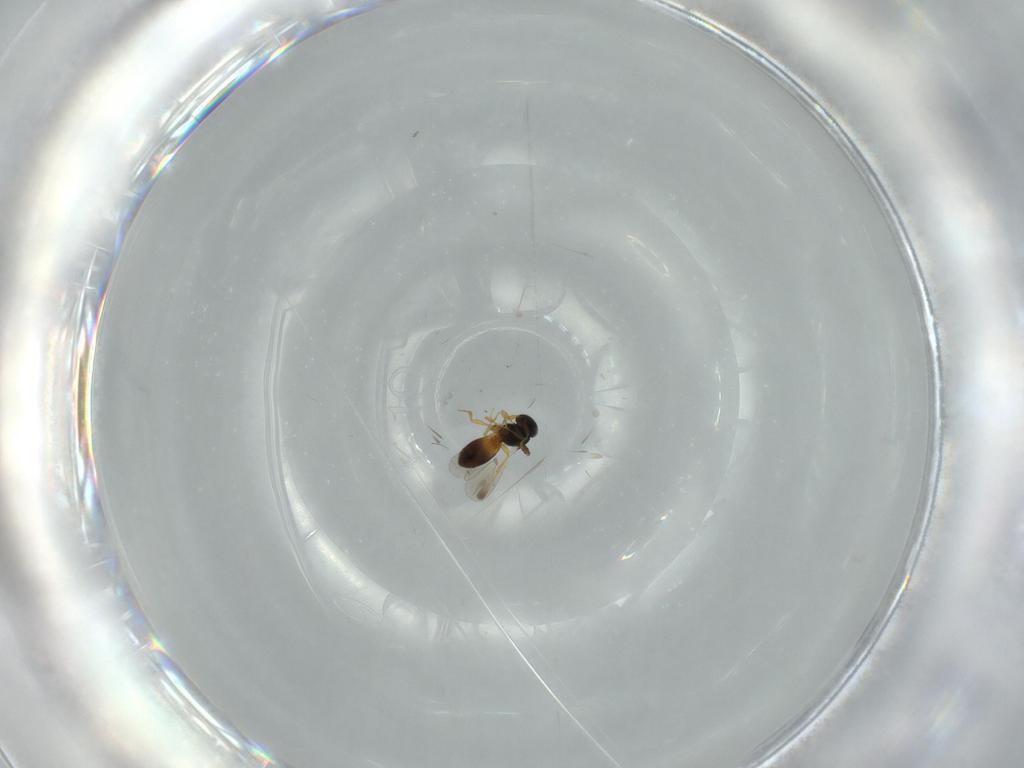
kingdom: Animalia
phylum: Arthropoda
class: Insecta
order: Hymenoptera
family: Platygastridae
